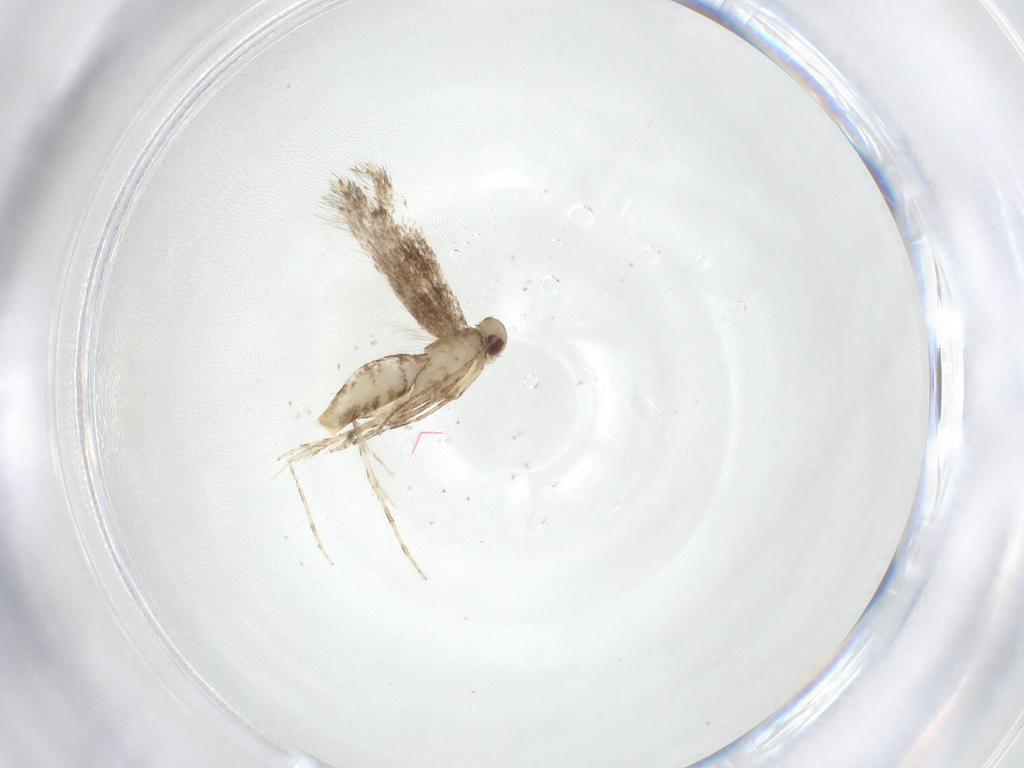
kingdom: Animalia
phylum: Arthropoda
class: Insecta
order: Lepidoptera
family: Gracillariidae
